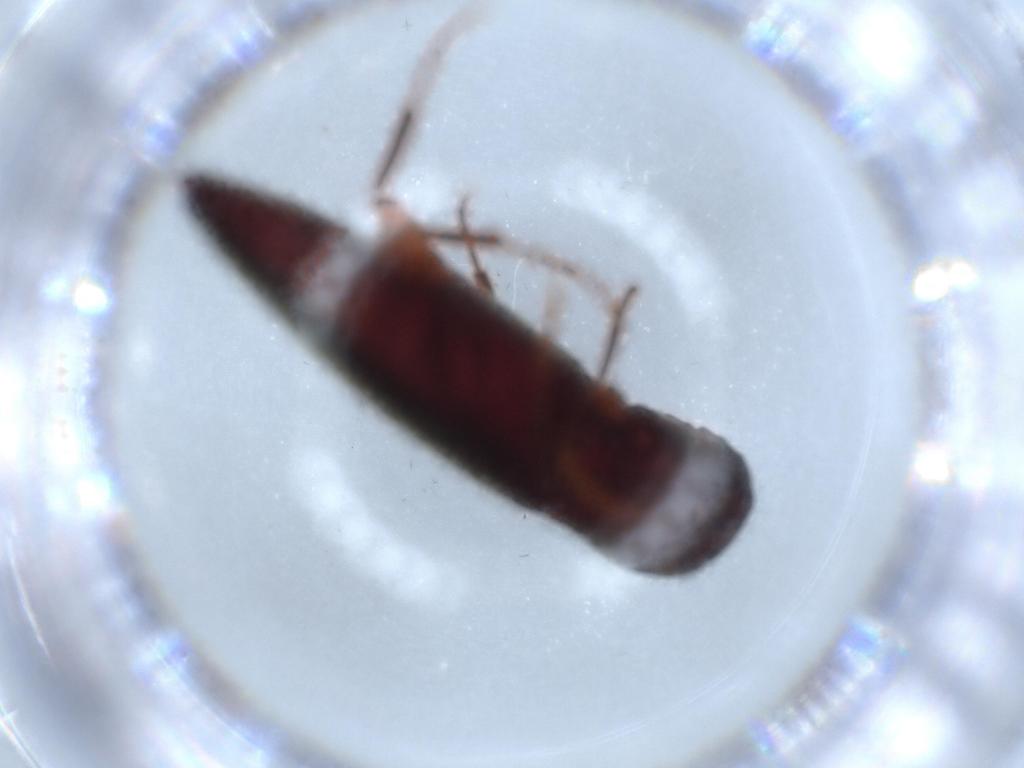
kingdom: Animalia
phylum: Arthropoda
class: Insecta
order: Coleoptera
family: Eucnemidae
